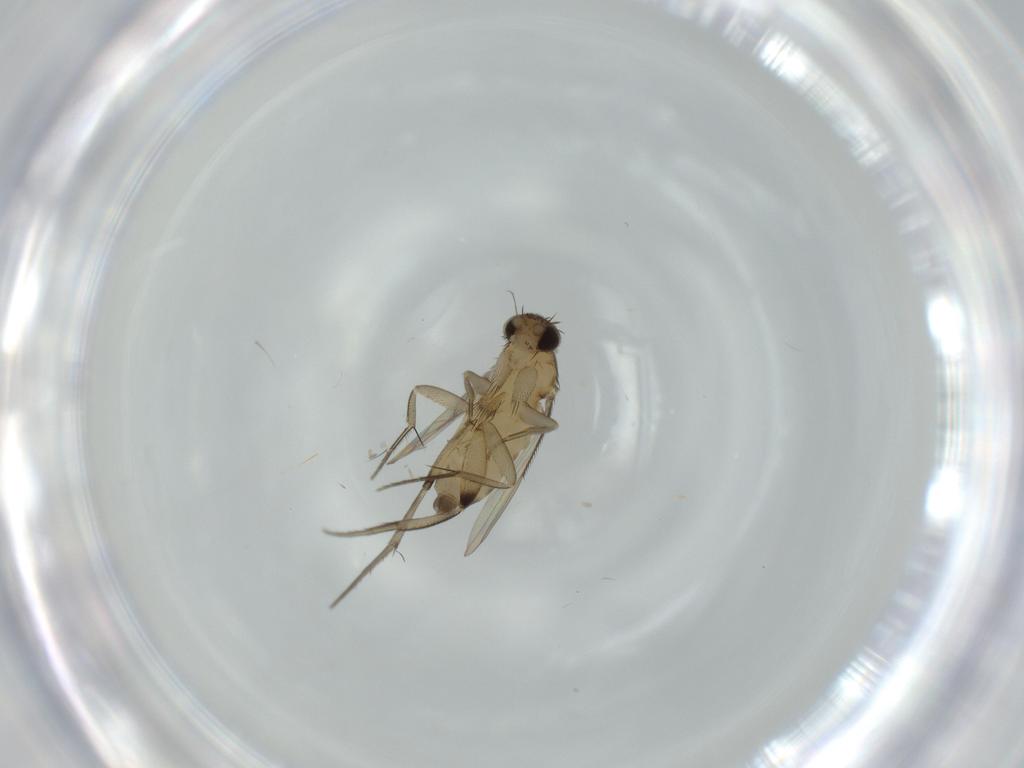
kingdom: Animalia
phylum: Arthropoda
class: Insecta
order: Diptera
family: Phoridae
